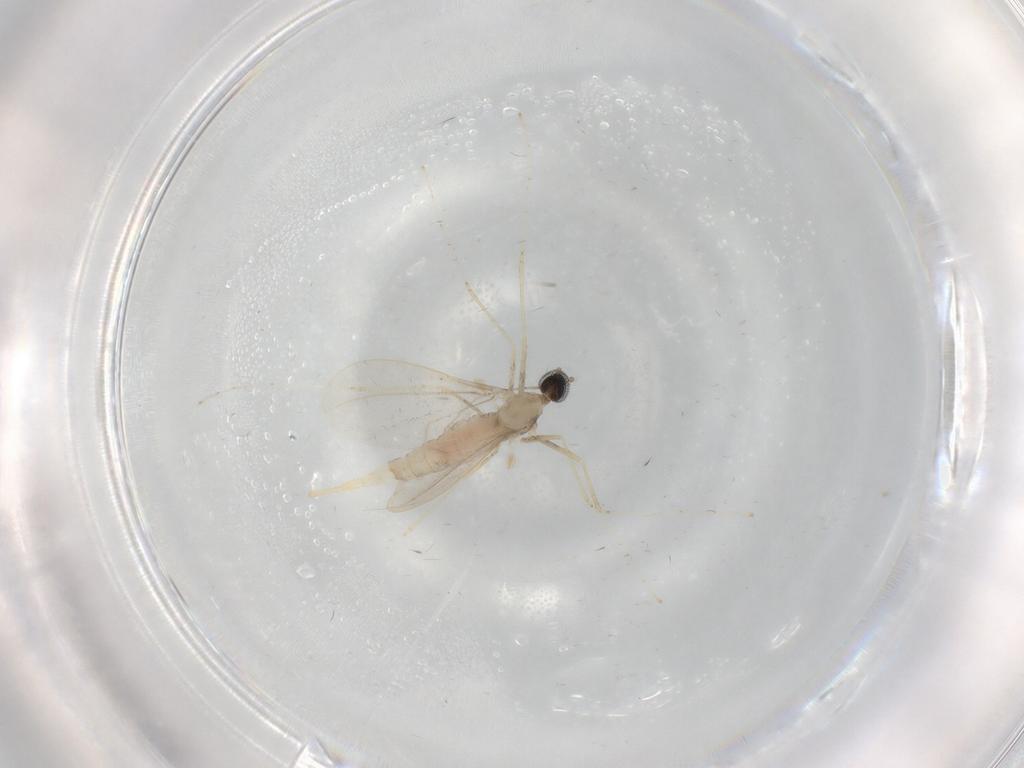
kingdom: Animalia
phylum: Arthropoda
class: Insecta
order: Diptera
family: Cecidomyiidae
